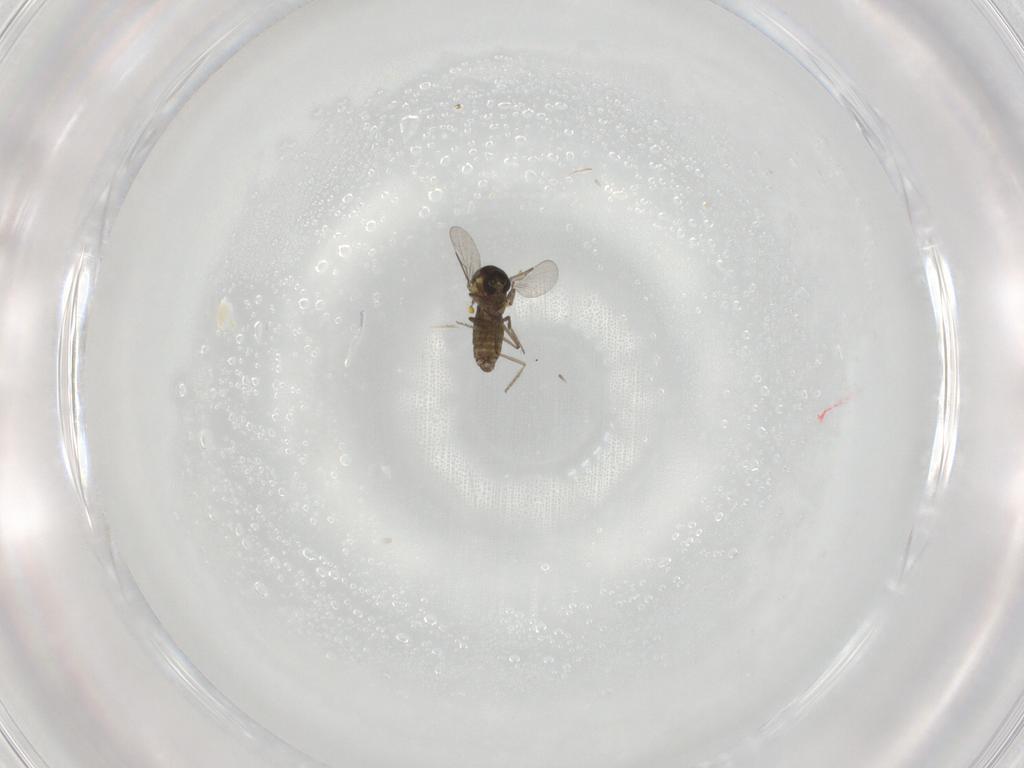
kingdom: Animalia
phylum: Arthropoda
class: Insecta
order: Diptera
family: Ceratopogonidae
